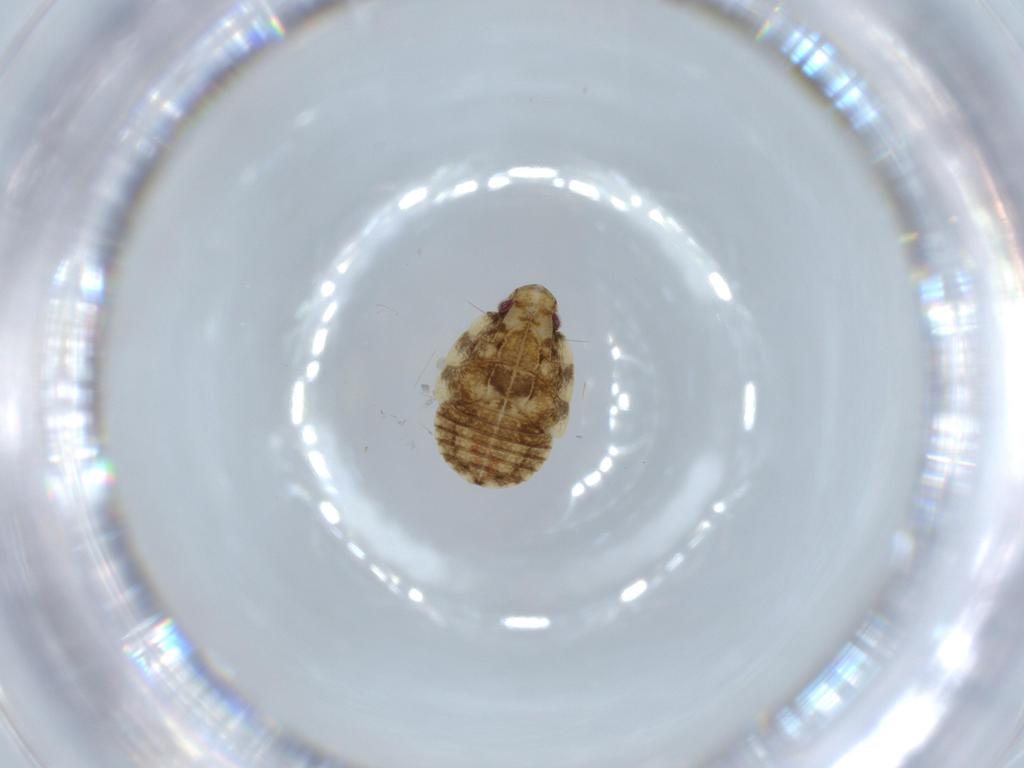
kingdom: Animalia
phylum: Arthropoda
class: Insecta
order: Hemiptera
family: Flatidae
